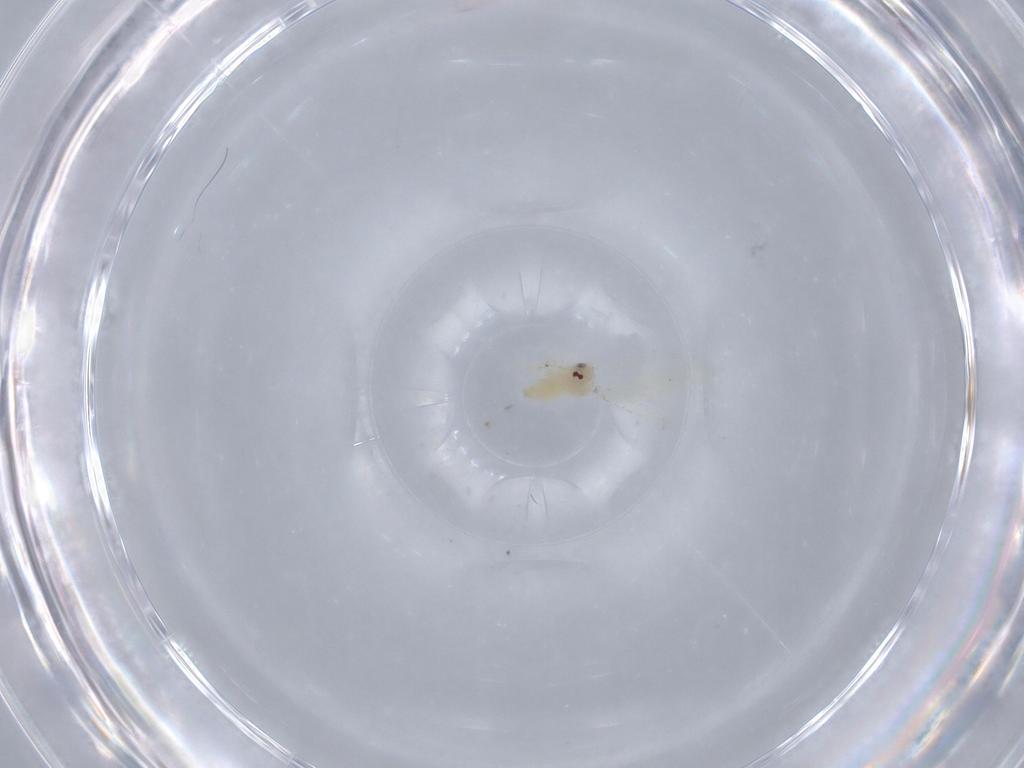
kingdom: Animalia
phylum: Arthropoda
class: Insecta
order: Hemiptera
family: Aleyrodidae
